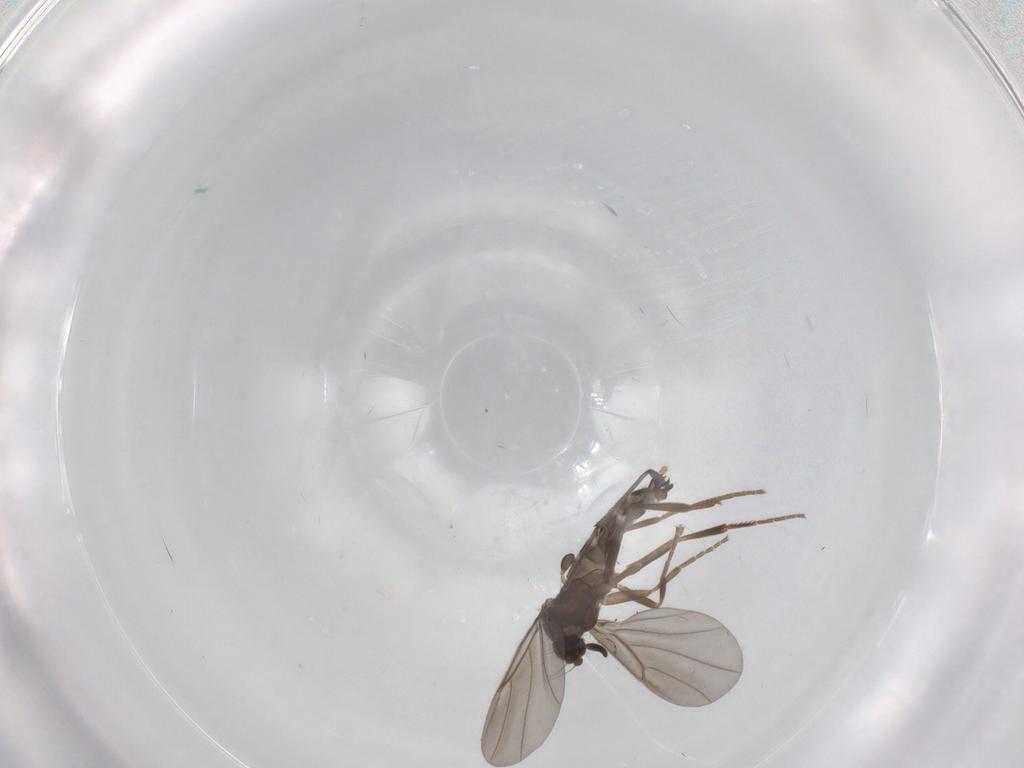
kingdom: Animalia
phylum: Arthropoda
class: Insecta
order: Diptera
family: Sciaridae
